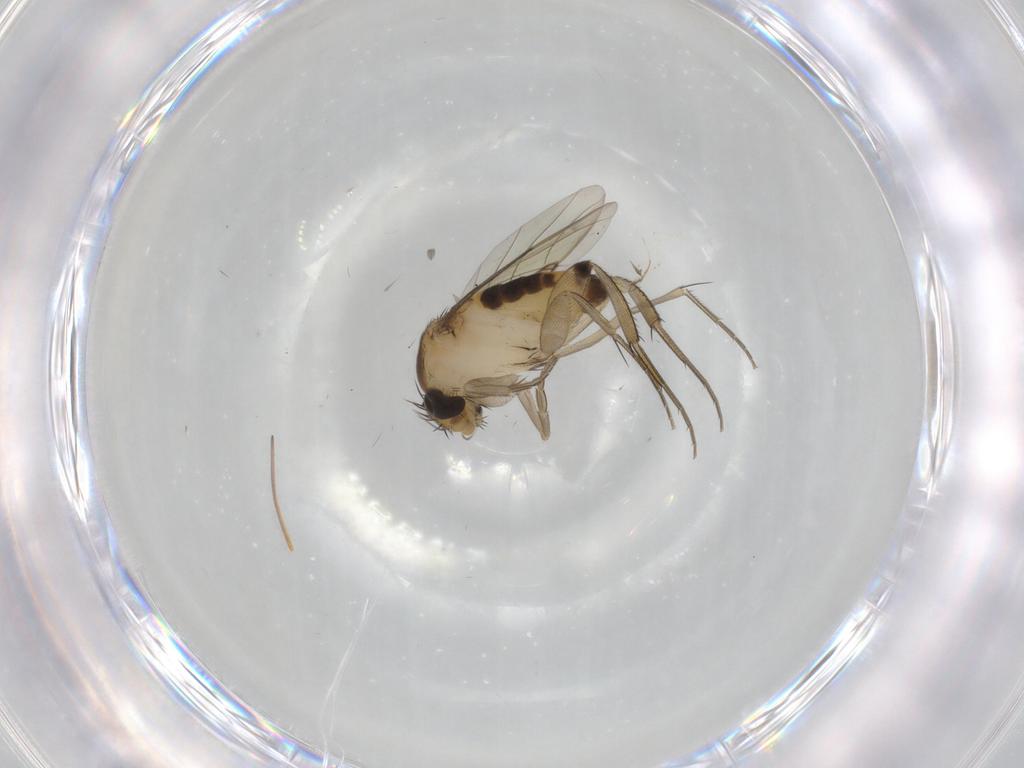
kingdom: Animalia
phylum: Arthropoda
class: Insecta
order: Diptera
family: Phoridae
